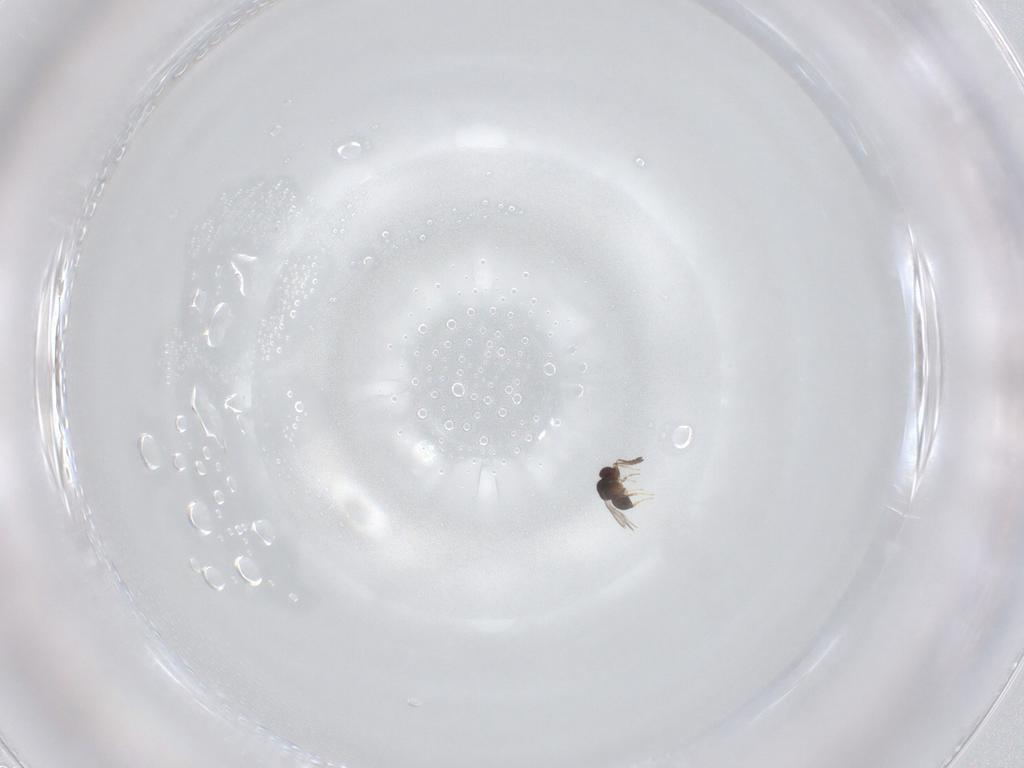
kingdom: Animalia
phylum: Arthropoda
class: Insecta
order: Hymenoptera
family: Ceraphronidae
